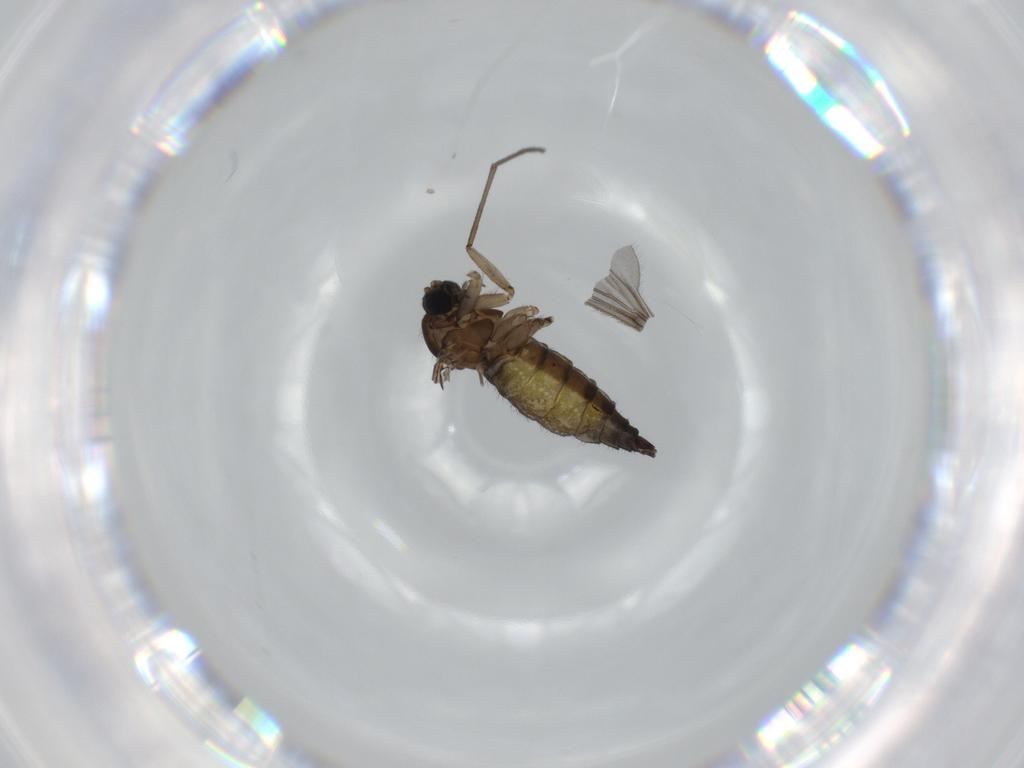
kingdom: Animalia
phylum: Arthropoda
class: Insecta
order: Diptera
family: Sciaridae
